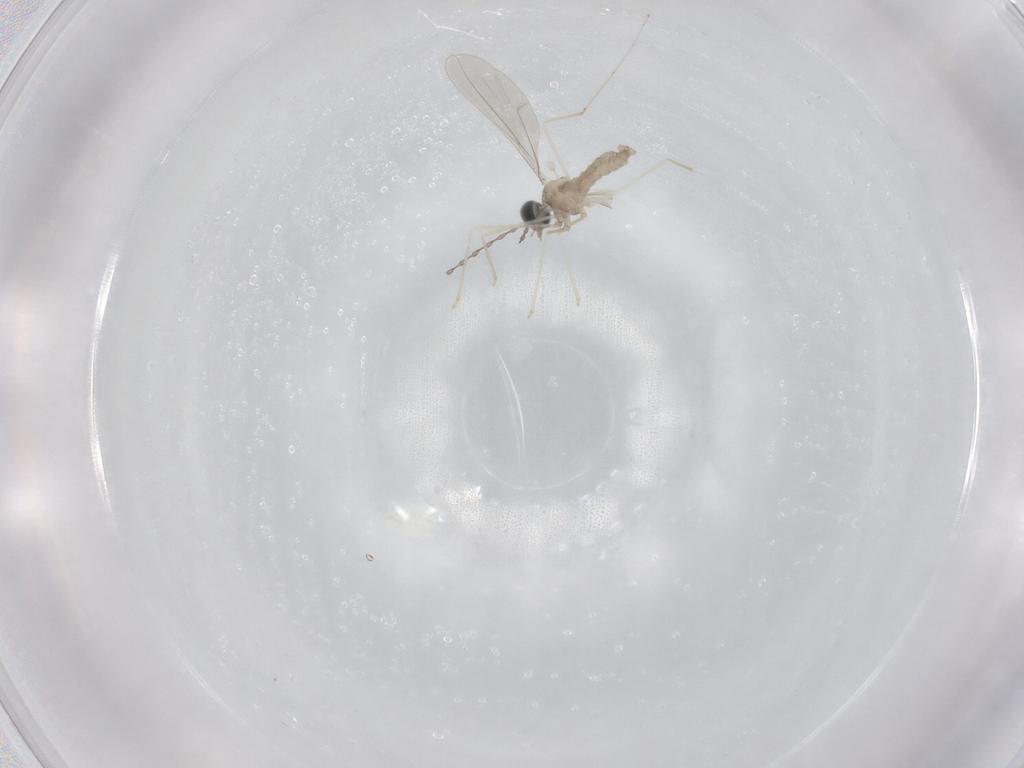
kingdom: Animalia
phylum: Arthropoda
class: Insecta
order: Diptera
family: Cecidomyiidae
